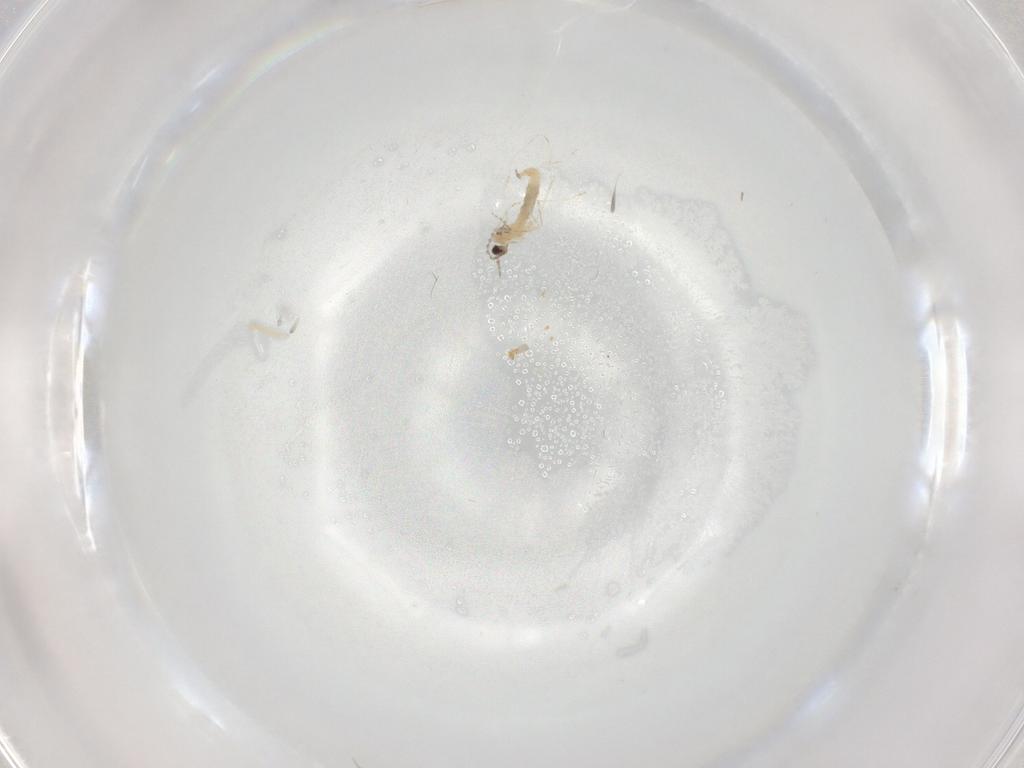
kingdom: Animalia
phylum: Arthropoda
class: Insecta
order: Diptera
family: Cecidomyiidae
